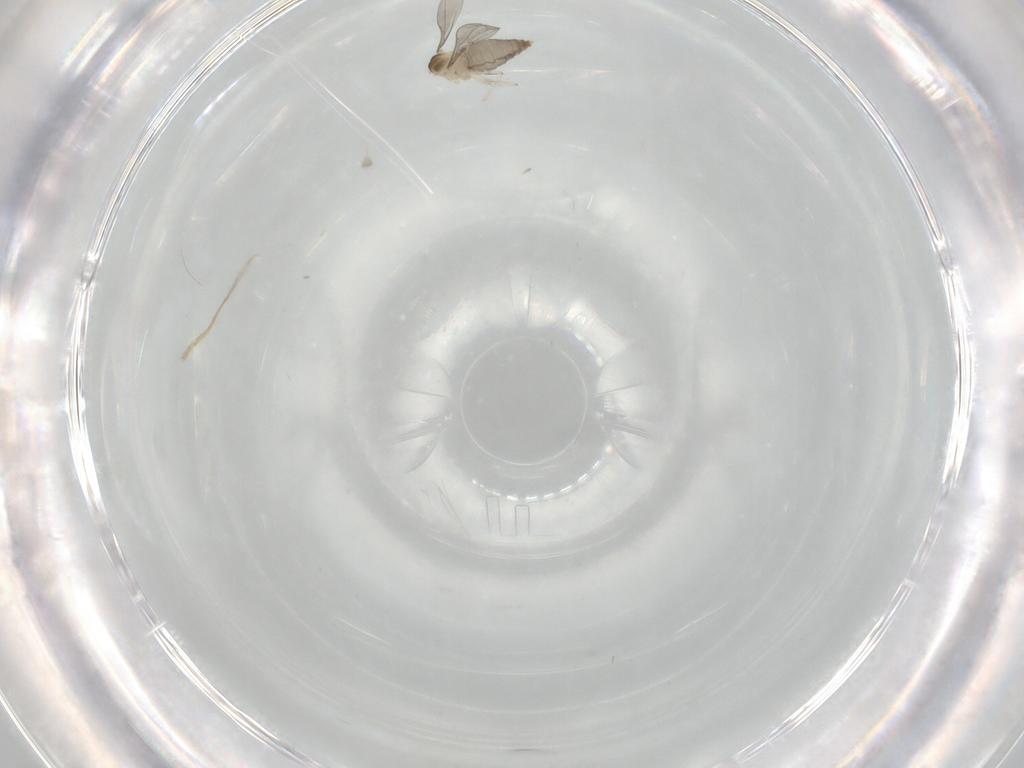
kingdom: Animalia
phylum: Arthropoda
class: Insecta
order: Diptera
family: Cecidomyiidae
